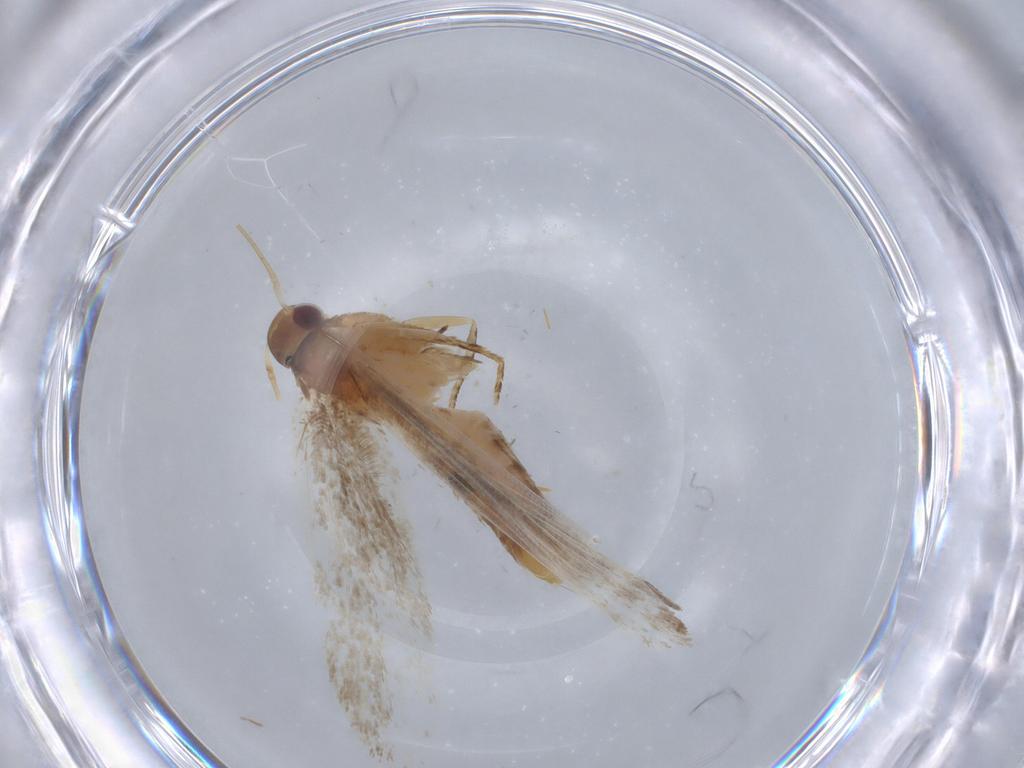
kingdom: Animalia
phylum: Arthropoda
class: Insecta
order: Lepidoptera
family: Gelechiidae
